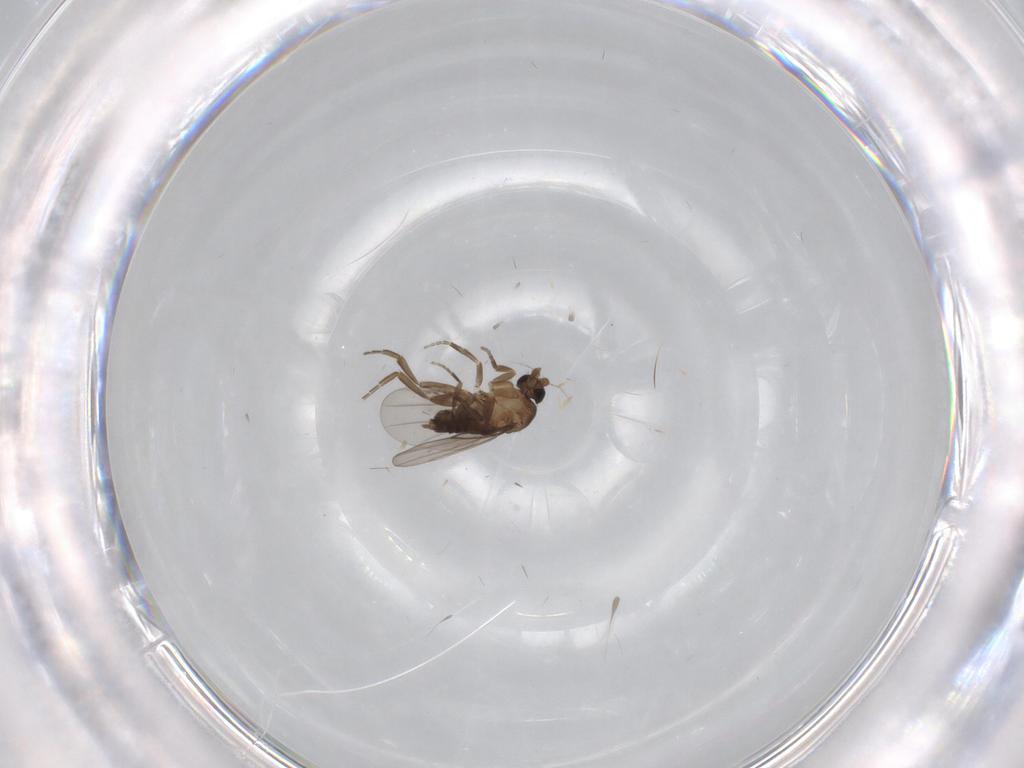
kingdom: Animalia
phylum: Arthropoda
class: Insecta
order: Diptera
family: Phoridae
